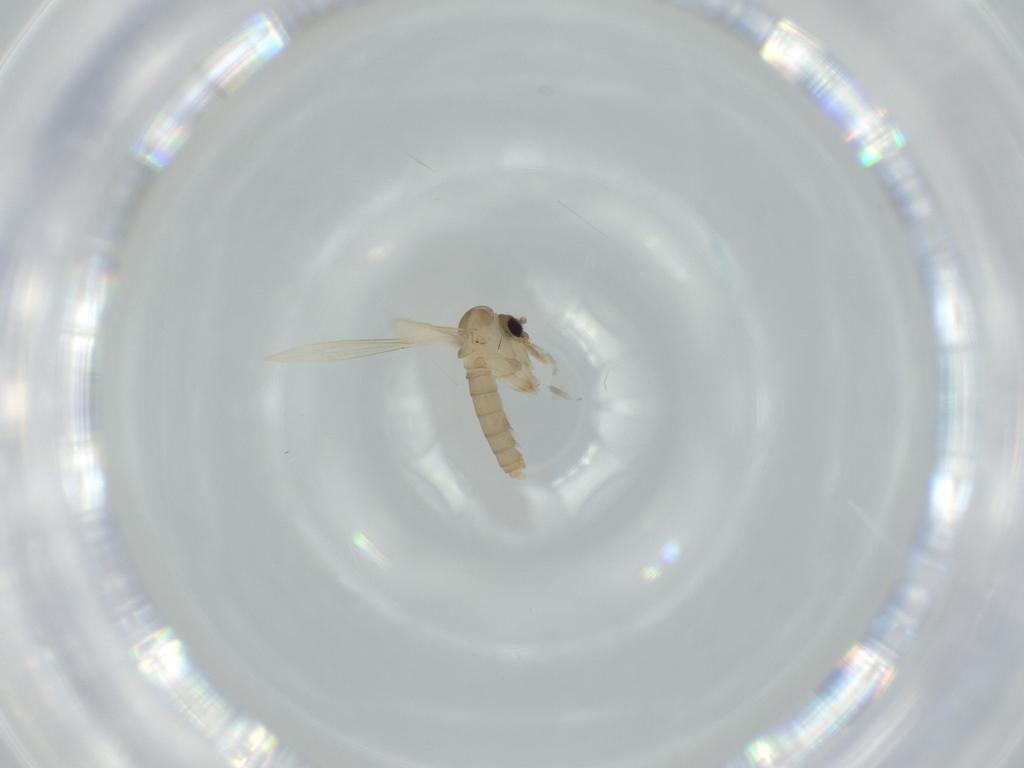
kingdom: Animalia
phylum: Arthropoda
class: Insecta
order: Diptera
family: Psychodidae
